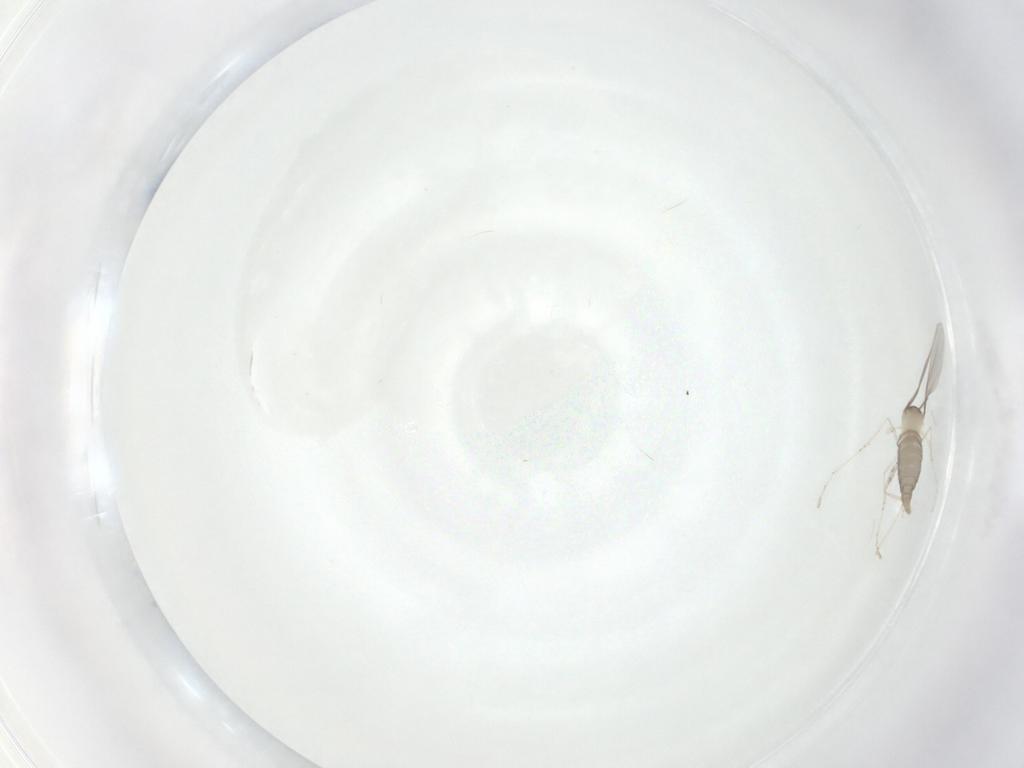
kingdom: Animalia
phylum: Arthropoda
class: Insecta
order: Diptera
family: Cecidomyiidae
